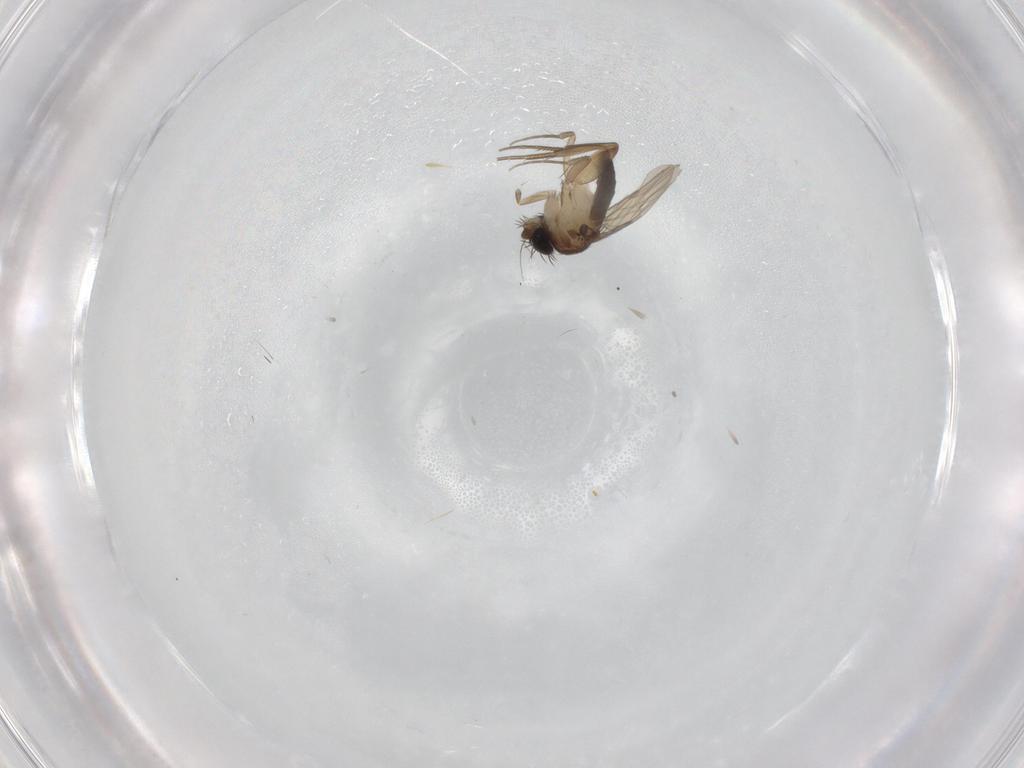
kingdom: Animalia
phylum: Arthropoda
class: Insecta
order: Diptera
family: Phoridae
